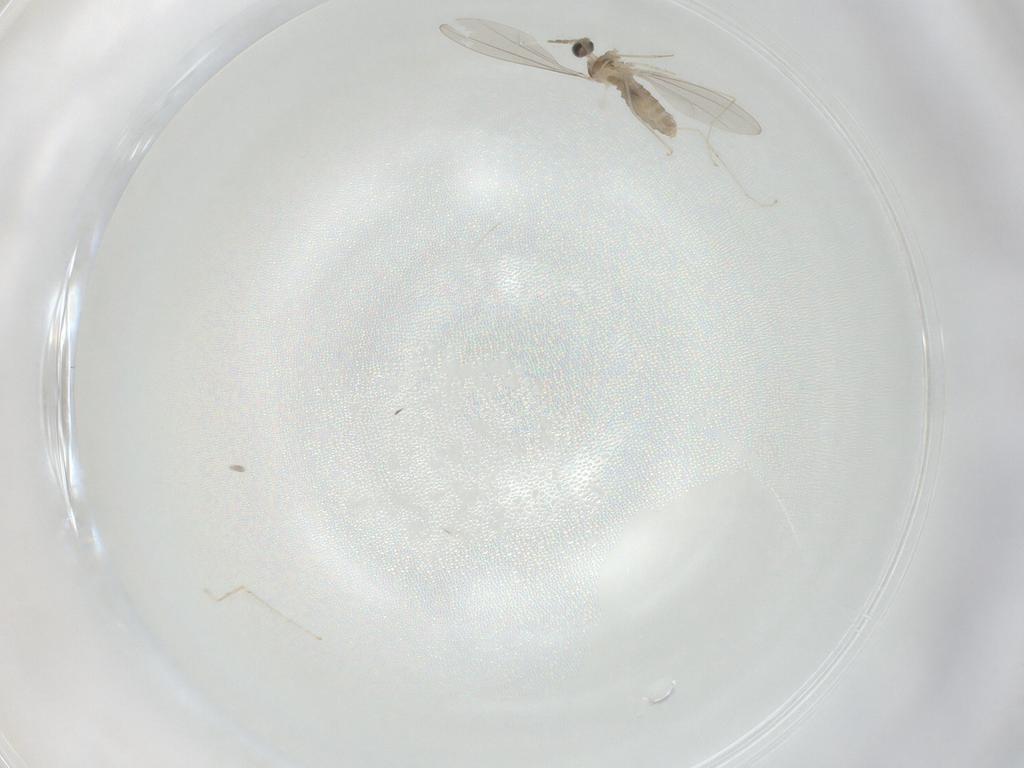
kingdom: Animalia
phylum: Arthropoda
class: Insecta
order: Diptera
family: Cecidomyiidae
